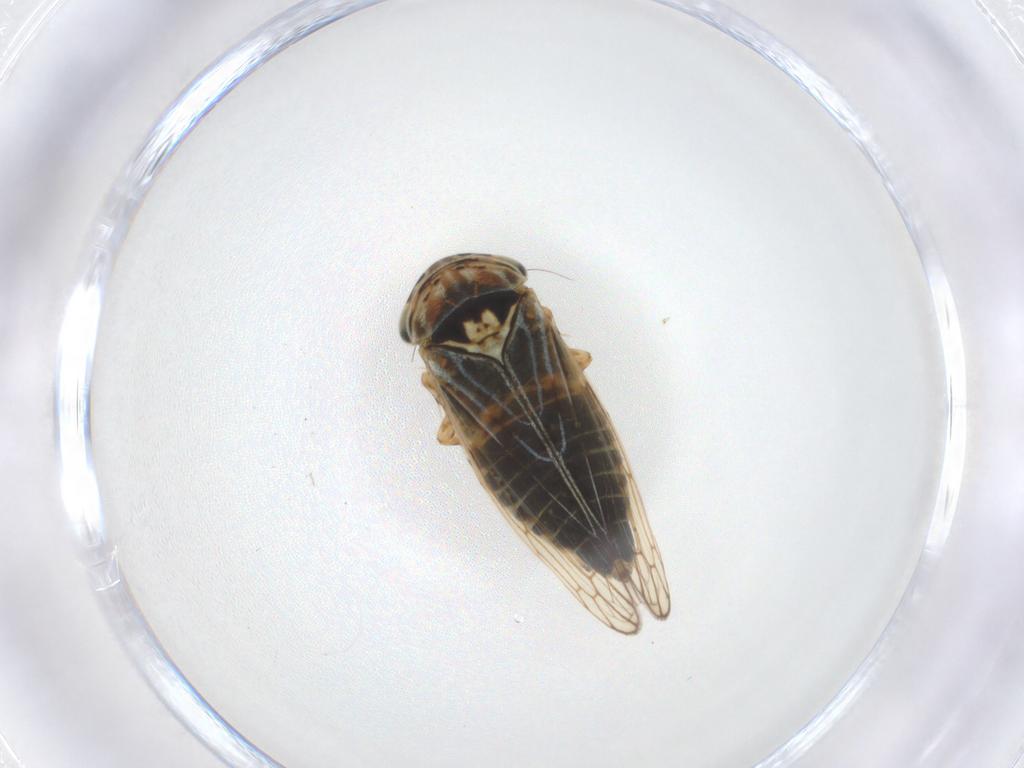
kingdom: Animalia
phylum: Arthropoda
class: Insecta
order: Hemiptera
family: Cicadellidae
